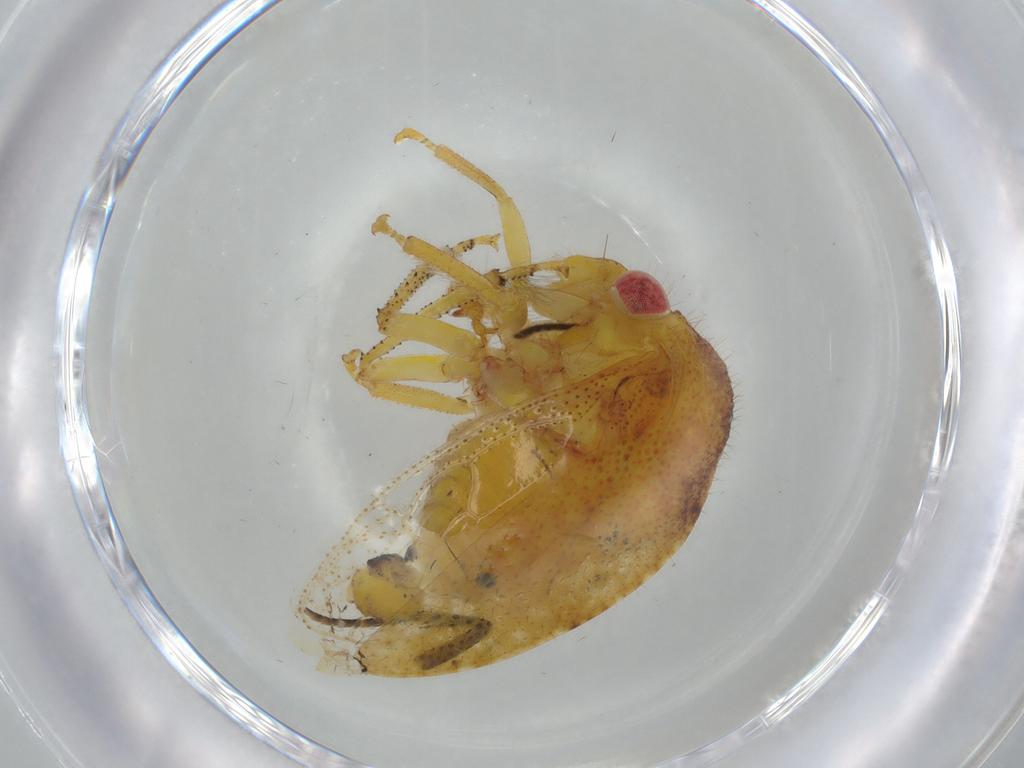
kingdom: Animalia
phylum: Arthropoda
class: Insecta
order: Hemiptera
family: Membracidae
